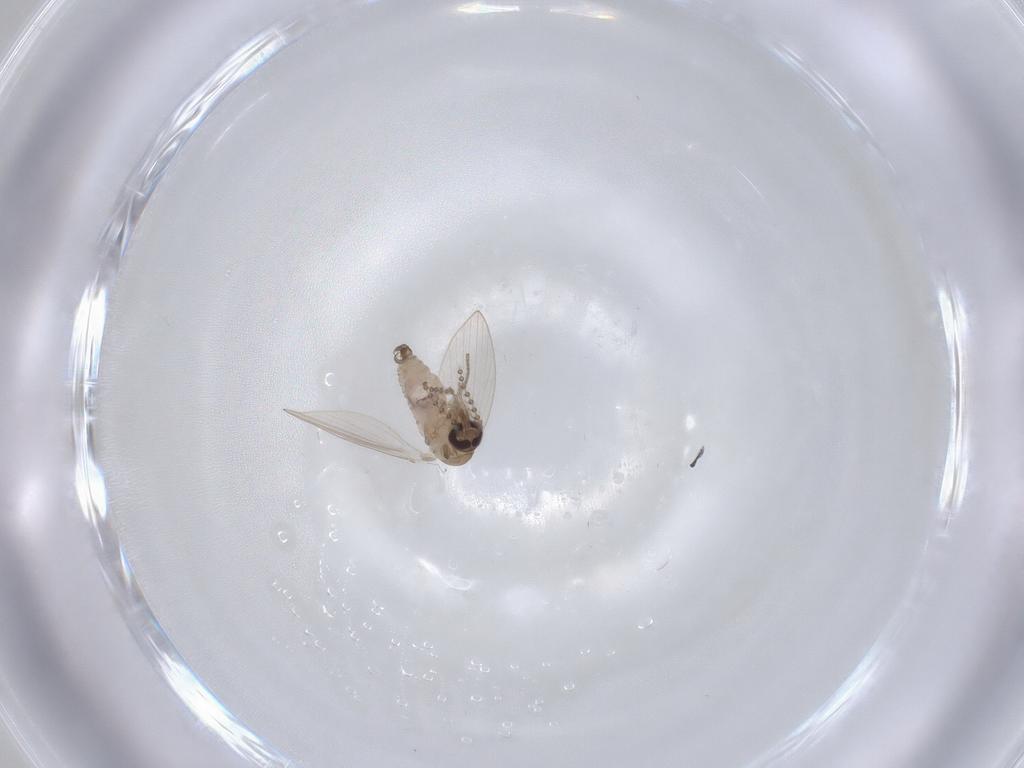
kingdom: Animalia
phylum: Arthropoda
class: Insecta
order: Diptera
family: Psychodidae
